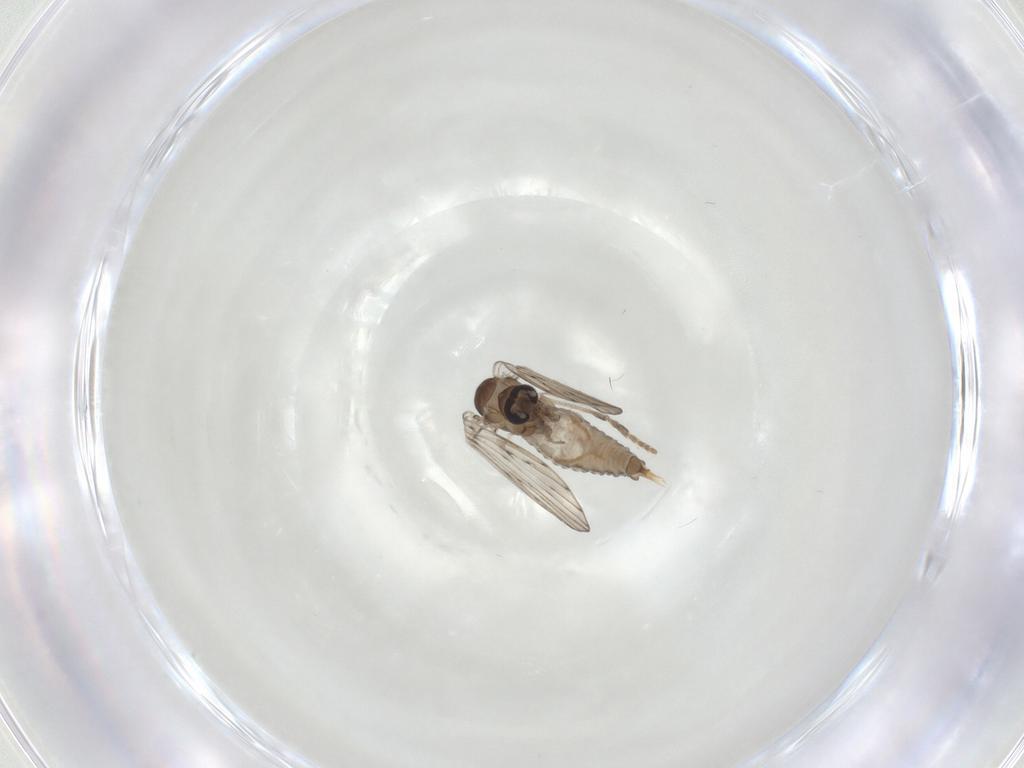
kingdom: Animalia
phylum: Arthropoda
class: Insecta
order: Diptera
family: Psychodidae
